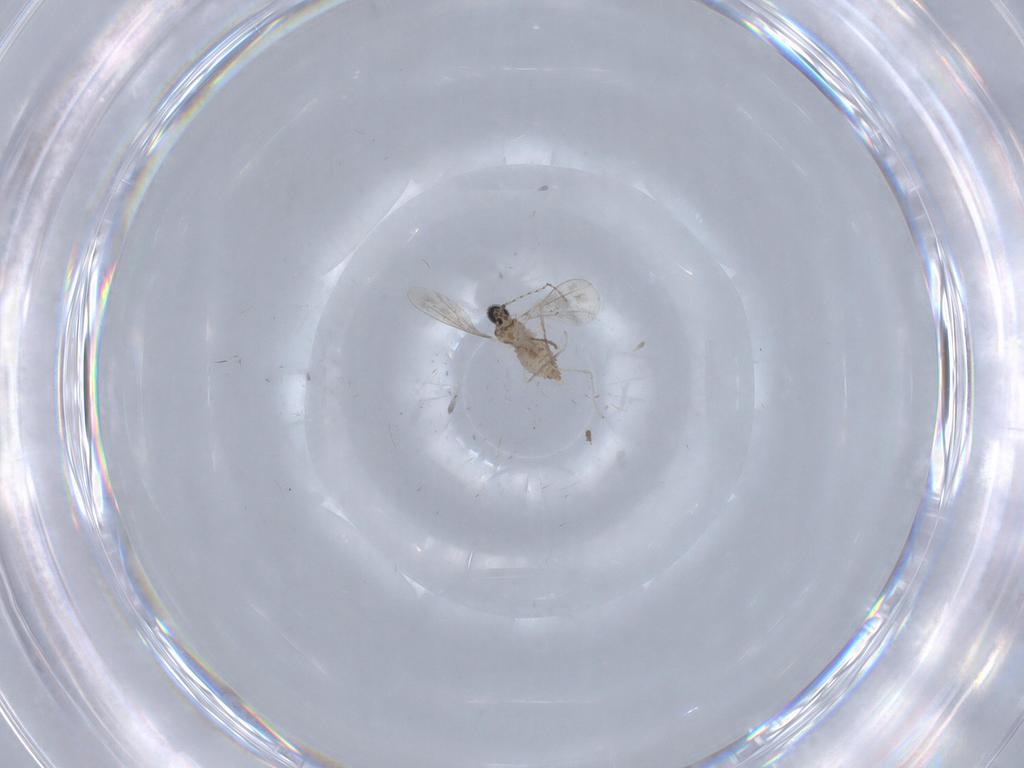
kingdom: Animalia
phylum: Arthropoda
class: Insecta
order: Diptera
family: Cecidomyiidae
